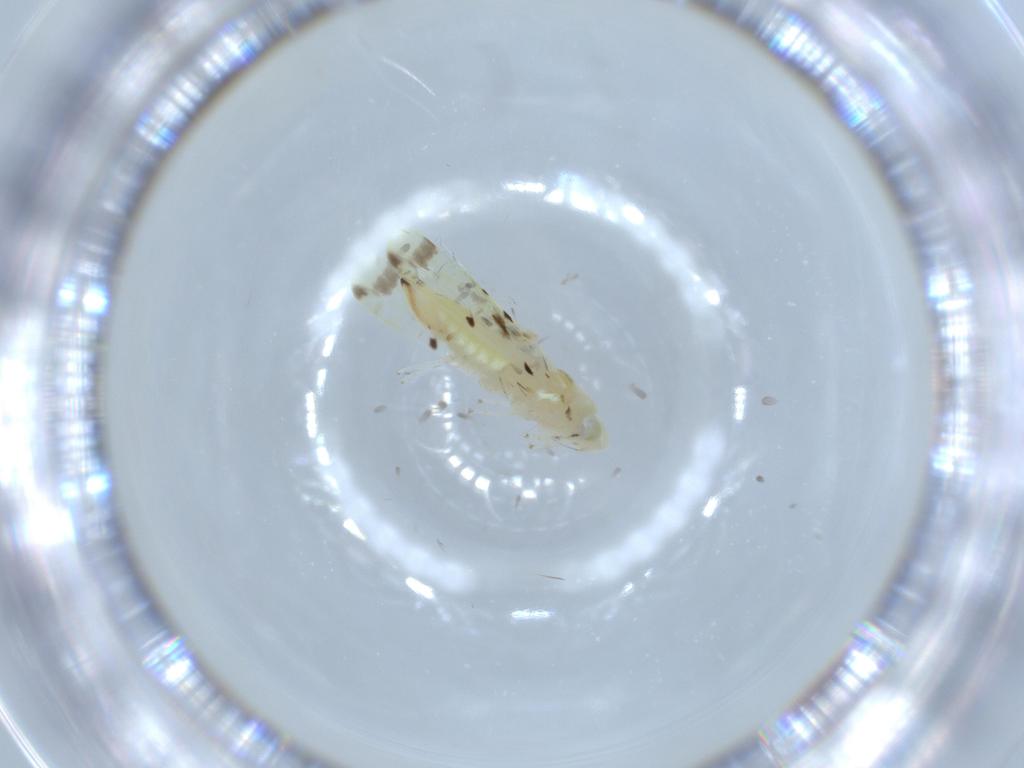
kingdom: Animalia
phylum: Arthropoda
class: Insecta
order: Hemiptera
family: Cicadellidae
